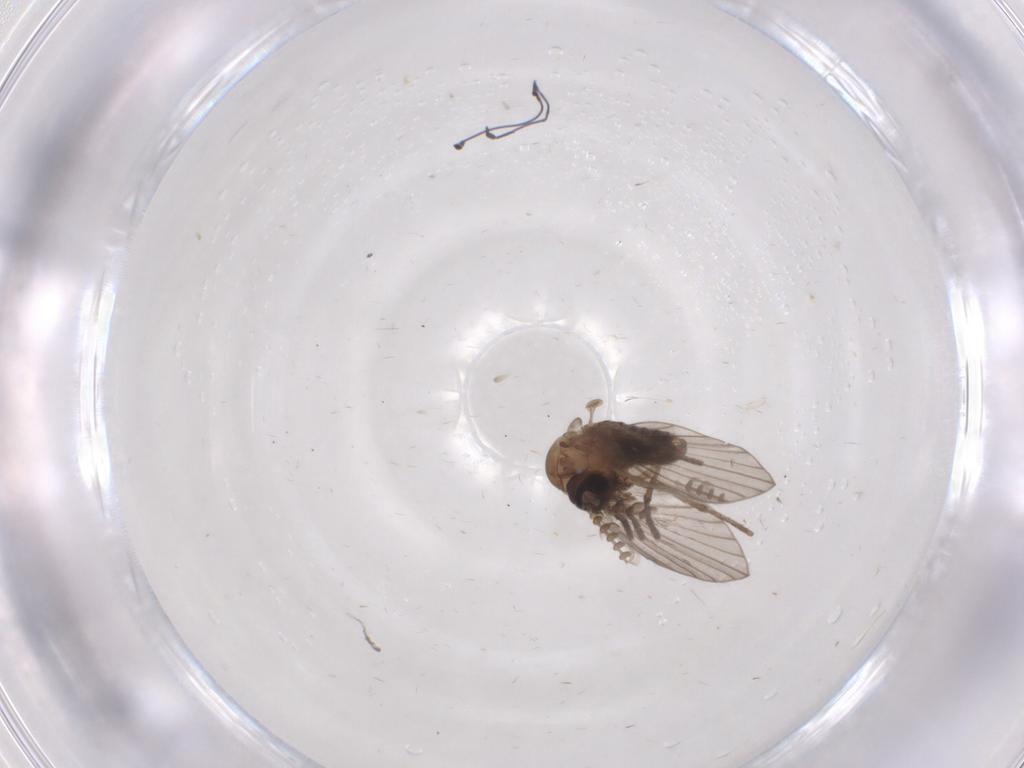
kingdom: Animalia
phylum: Arthropoda
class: Insecta
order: Diptera
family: Psychodidae
